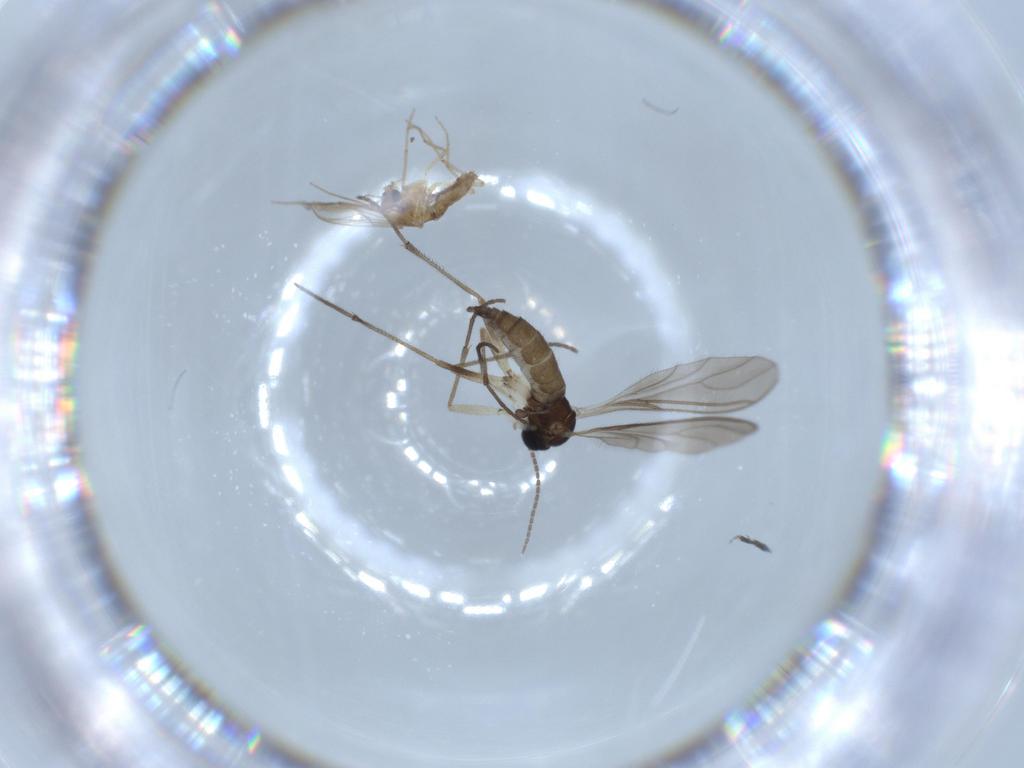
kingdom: Animalia
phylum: Arthropoda
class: Insecta
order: Diptera
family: Sciaridae
